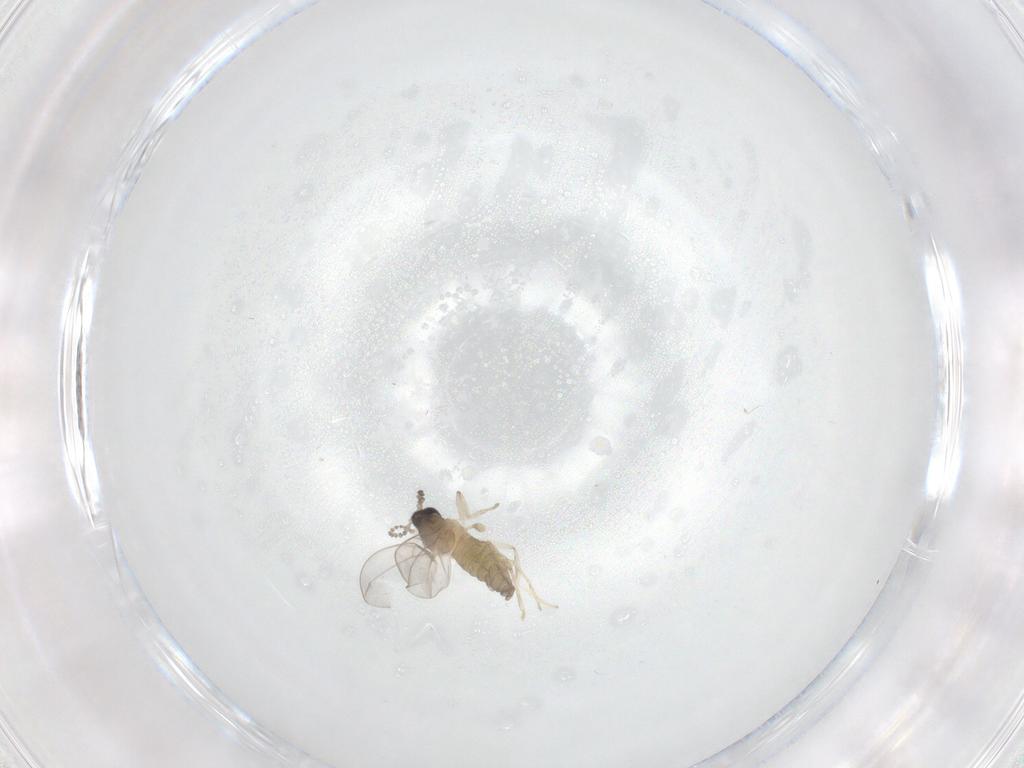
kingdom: Animalia
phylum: Arthropoda
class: Insecta
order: Diptera
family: Cecidomyiidae
